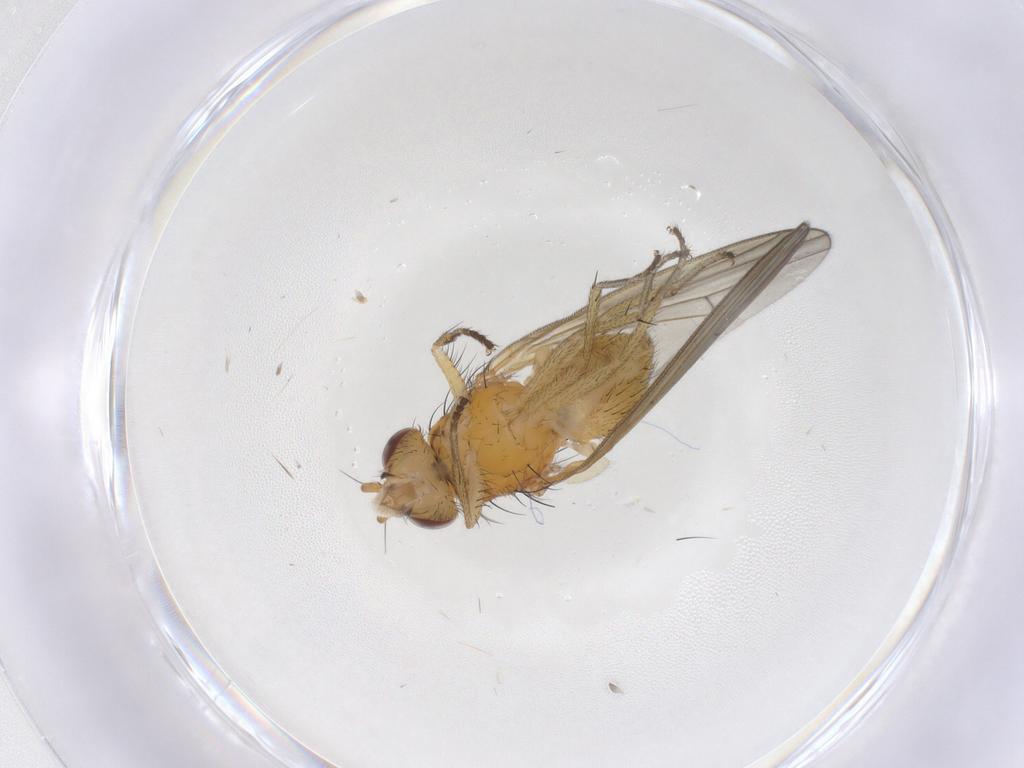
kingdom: Animalia
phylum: Arthropoda
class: Insecta
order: Diptera
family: Lauxaniidae
